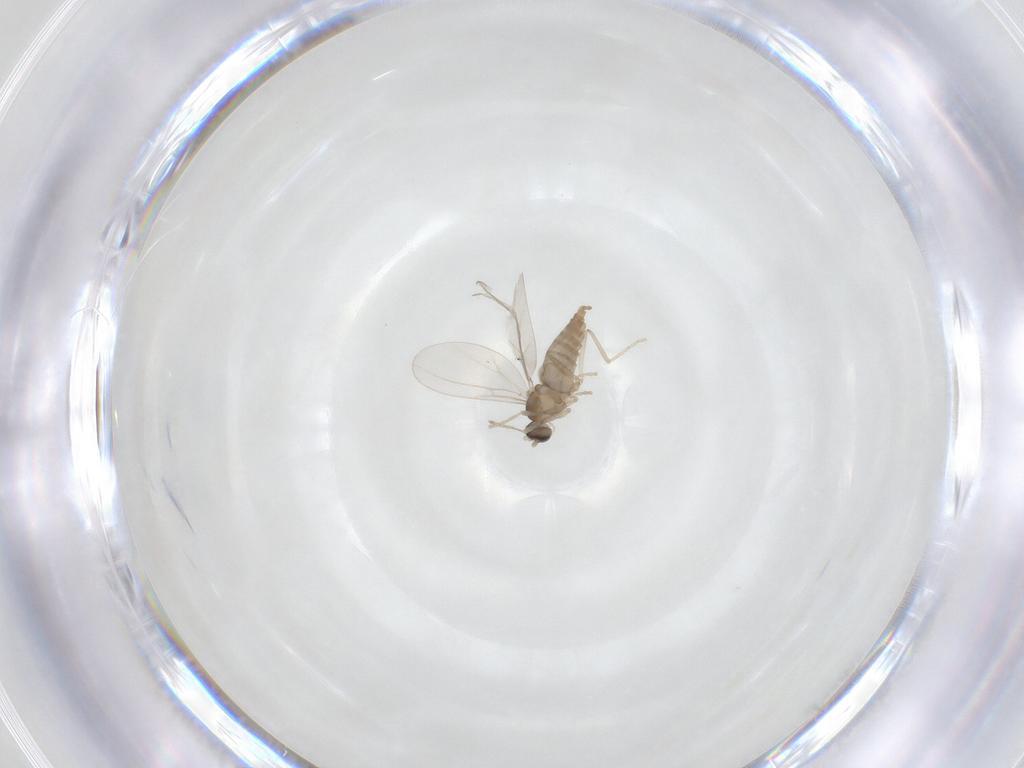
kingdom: Animalia
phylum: Arthropoda
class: Insecta
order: Diptera
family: Cecidomyiidae
